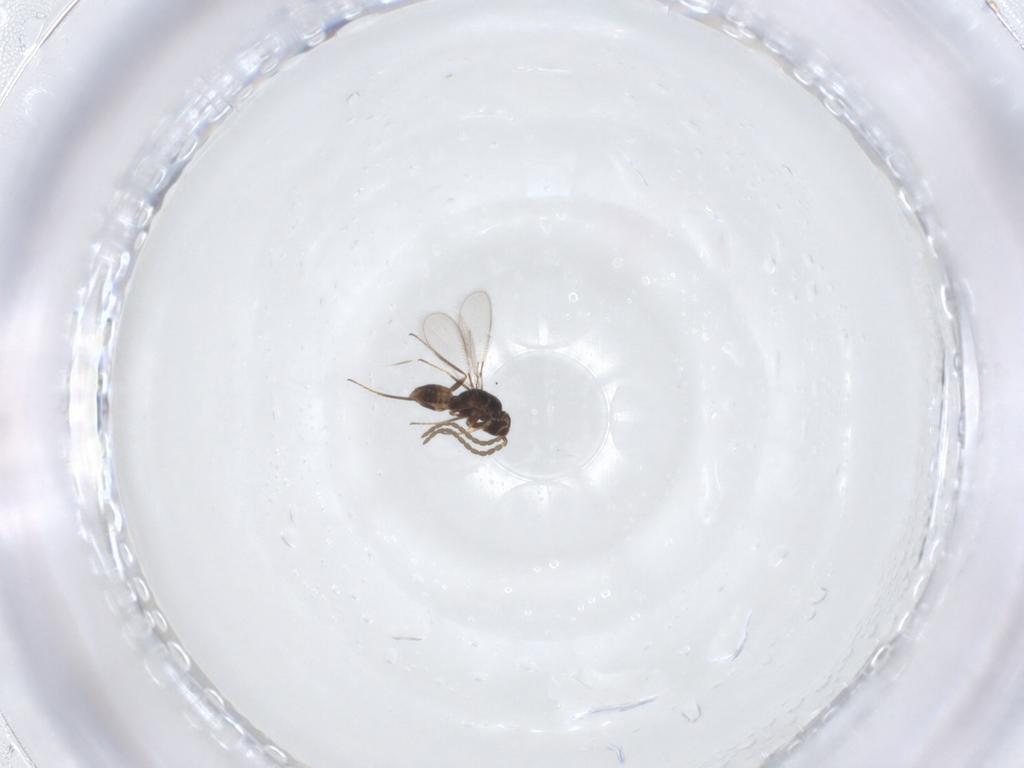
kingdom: Animalia
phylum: Arthropoda
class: Insecta
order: Hymenoptera
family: Mymaridae
